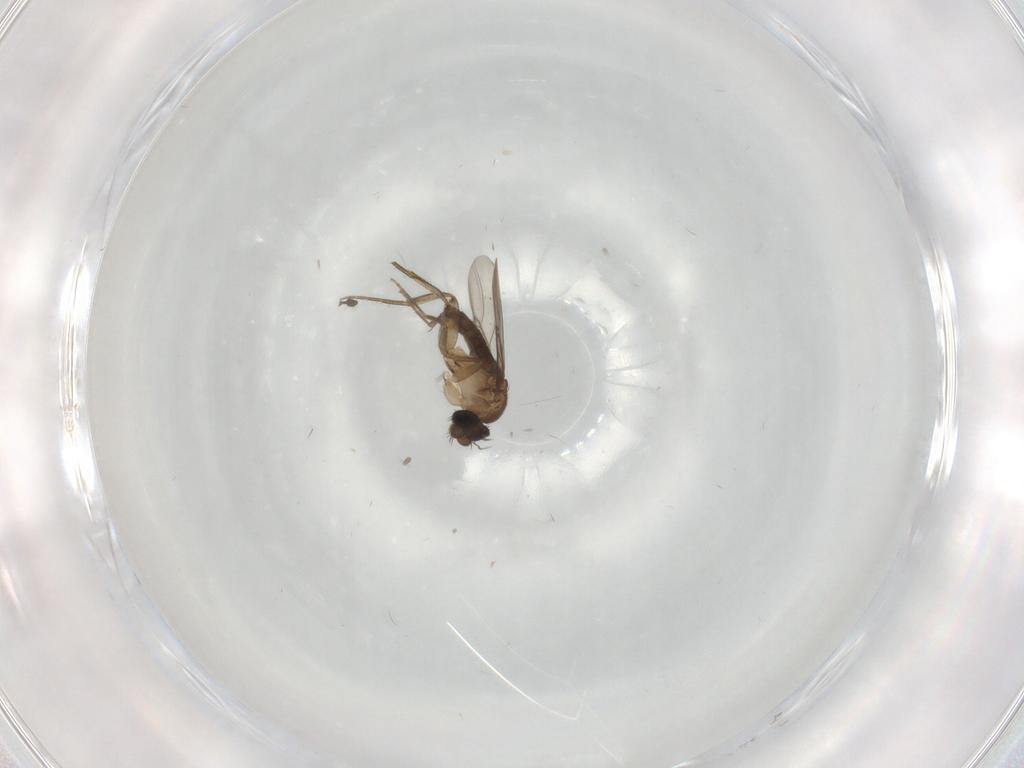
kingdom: Animalia
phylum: Arthropoda
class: Insecta
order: Diptera
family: Phoridae
